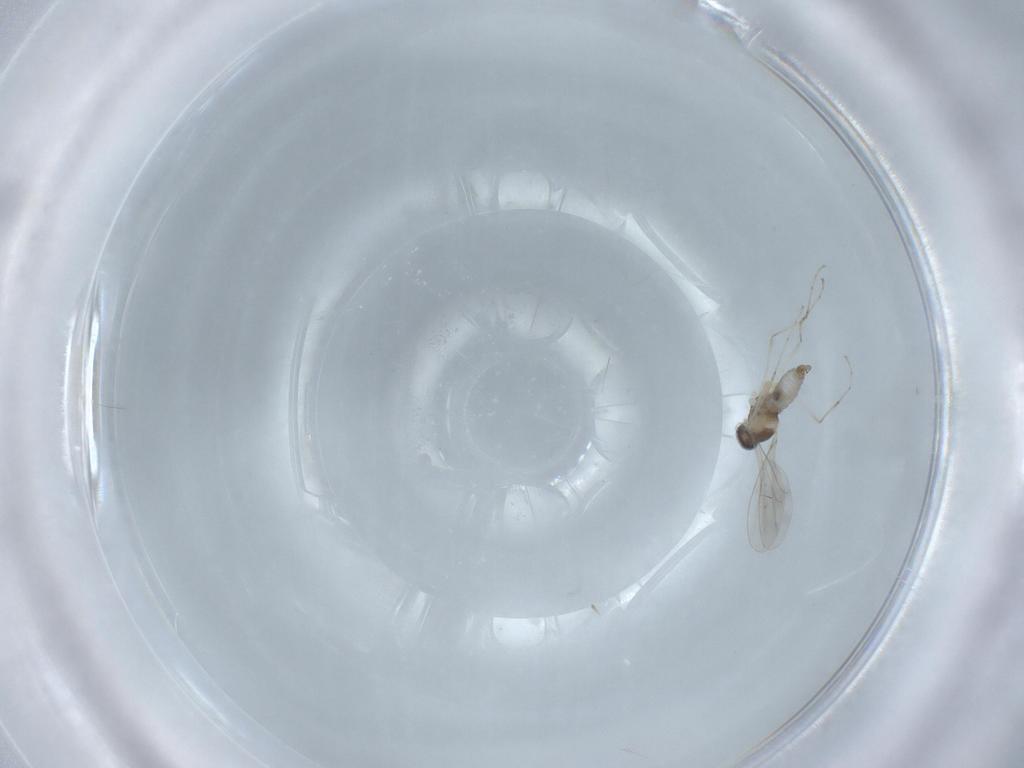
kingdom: Animalia
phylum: Arthropoda
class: Insecta
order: Diptera
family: Cecidomyiidae
